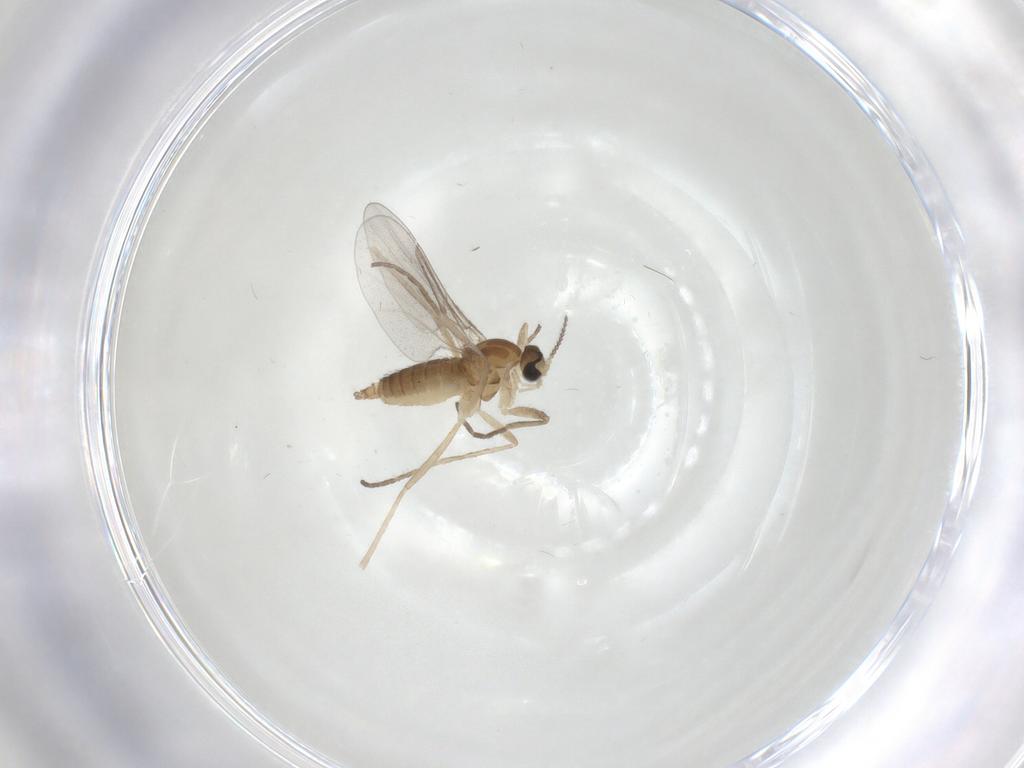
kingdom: Animalia
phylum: Arthropoda
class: Insecta
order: Diptera
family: Cecidomyiidae
